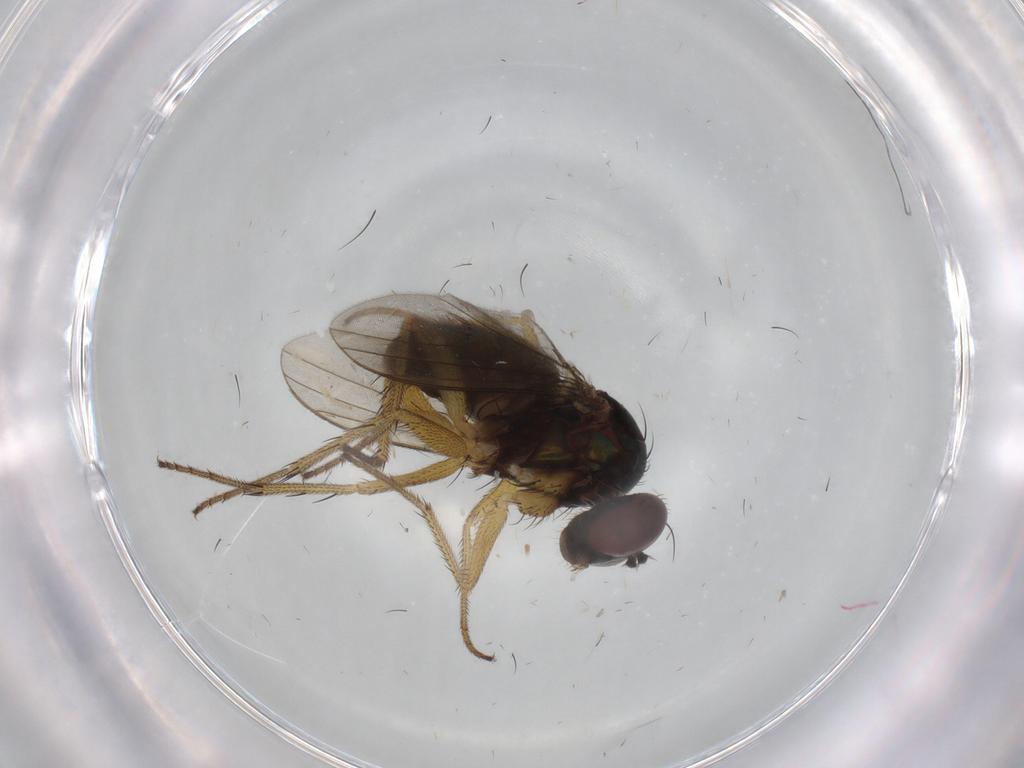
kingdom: Animalia
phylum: Arthropoda
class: Insecta
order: Diptera
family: Dolichopodidae
